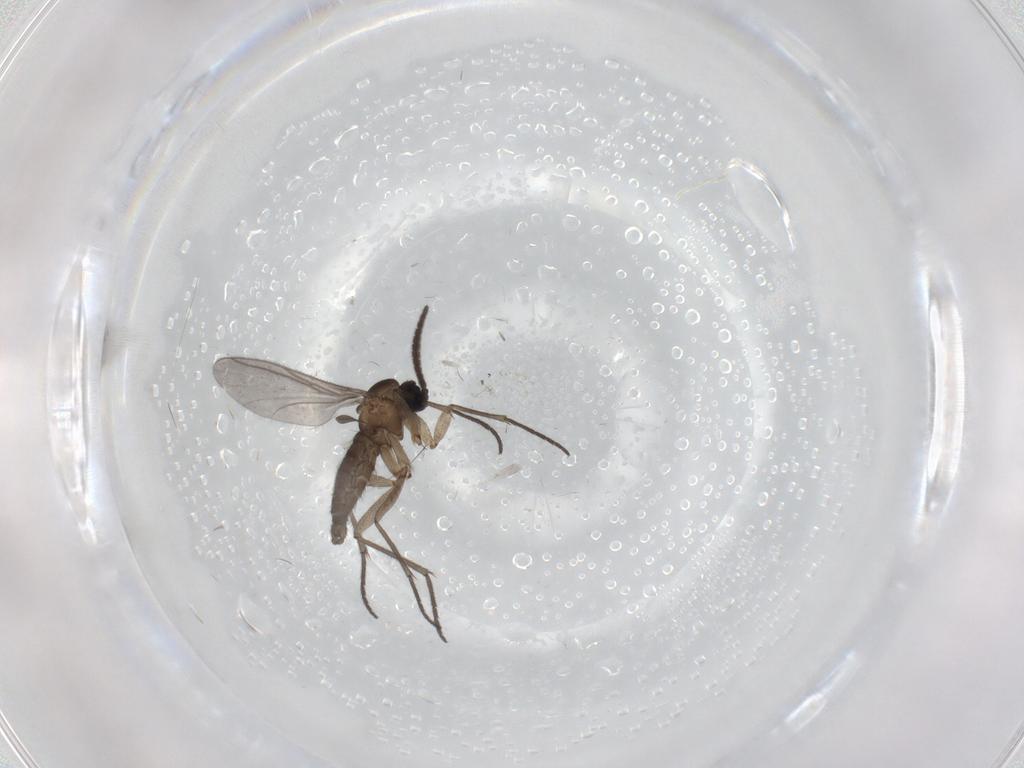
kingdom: Animalia
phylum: Arthropoda
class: Insecta
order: Diptera
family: Sciaridae
